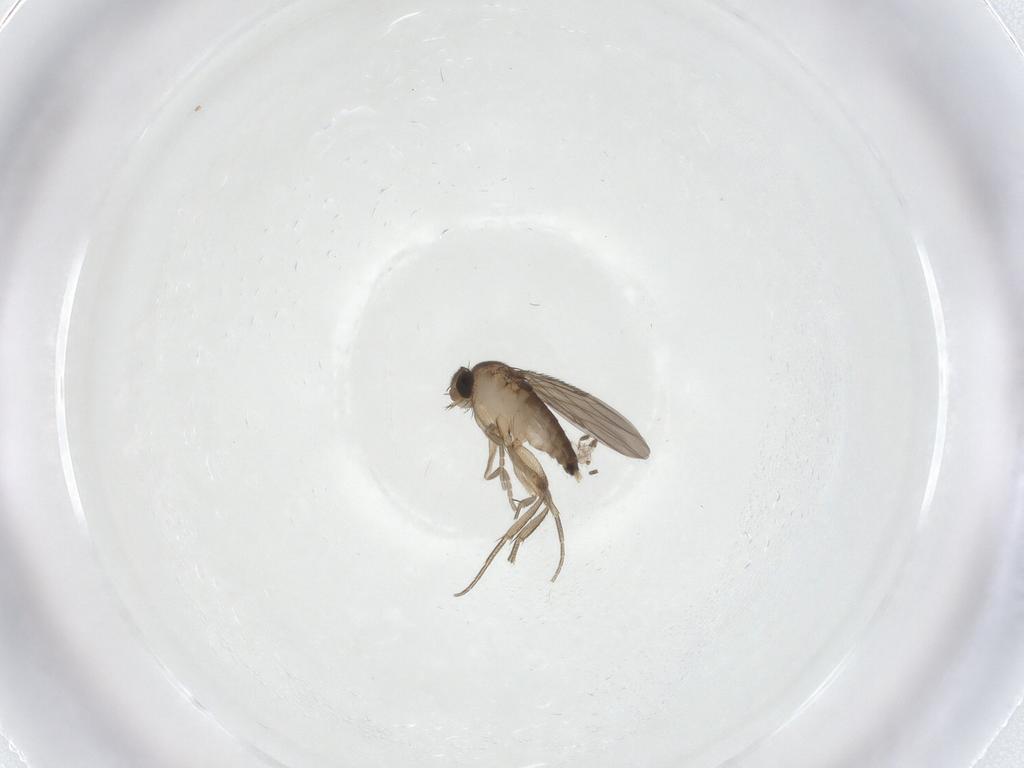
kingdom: Animalia
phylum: Arthropoda
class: Insecta
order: Diptera
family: Phoridae
